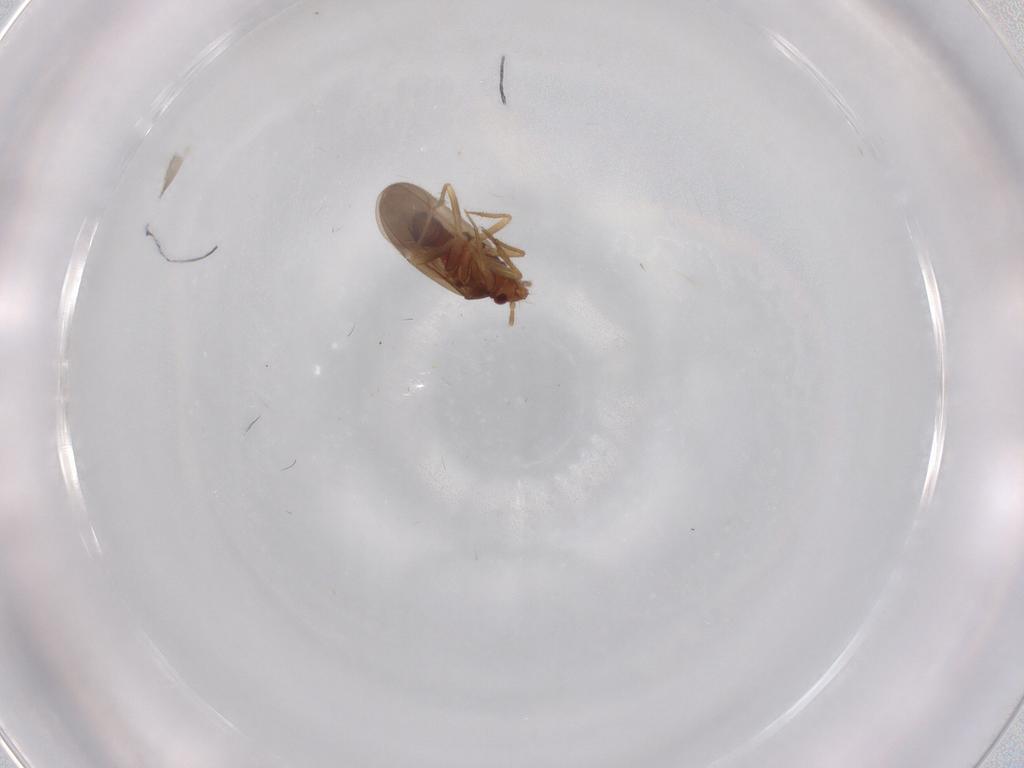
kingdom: Animalia
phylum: Arthropoda
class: Insecta
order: Hemiptera
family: Ceratocombidae
